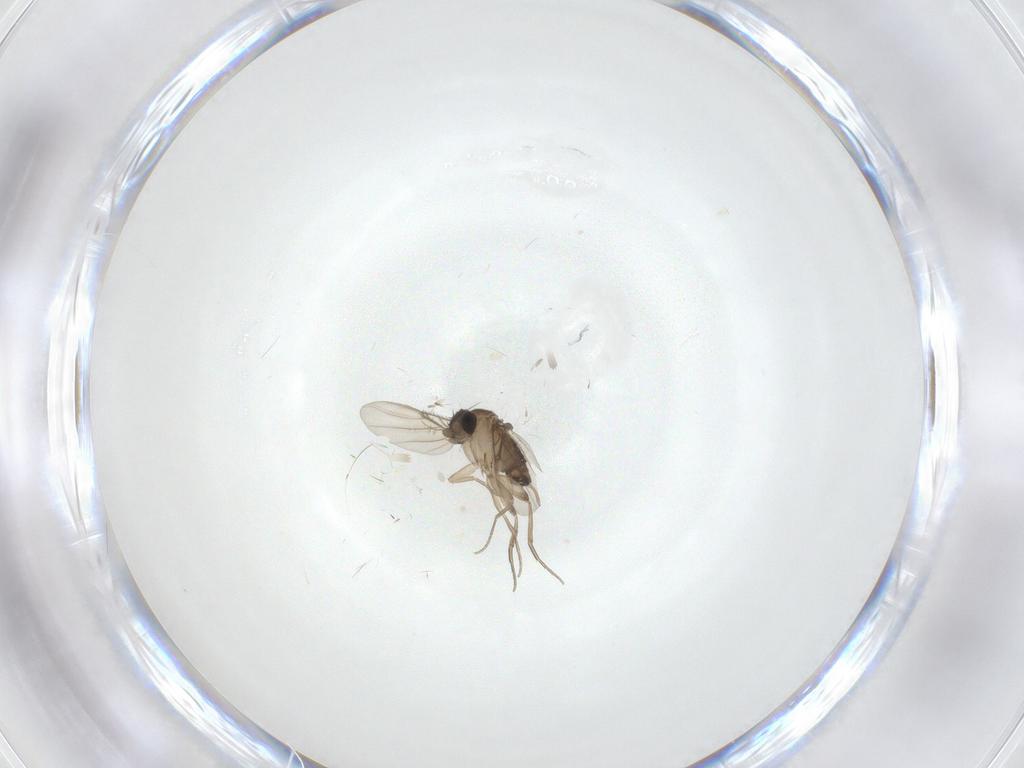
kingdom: Animalia
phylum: Arthropoda
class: Insecta
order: Diptera
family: Phoridae
